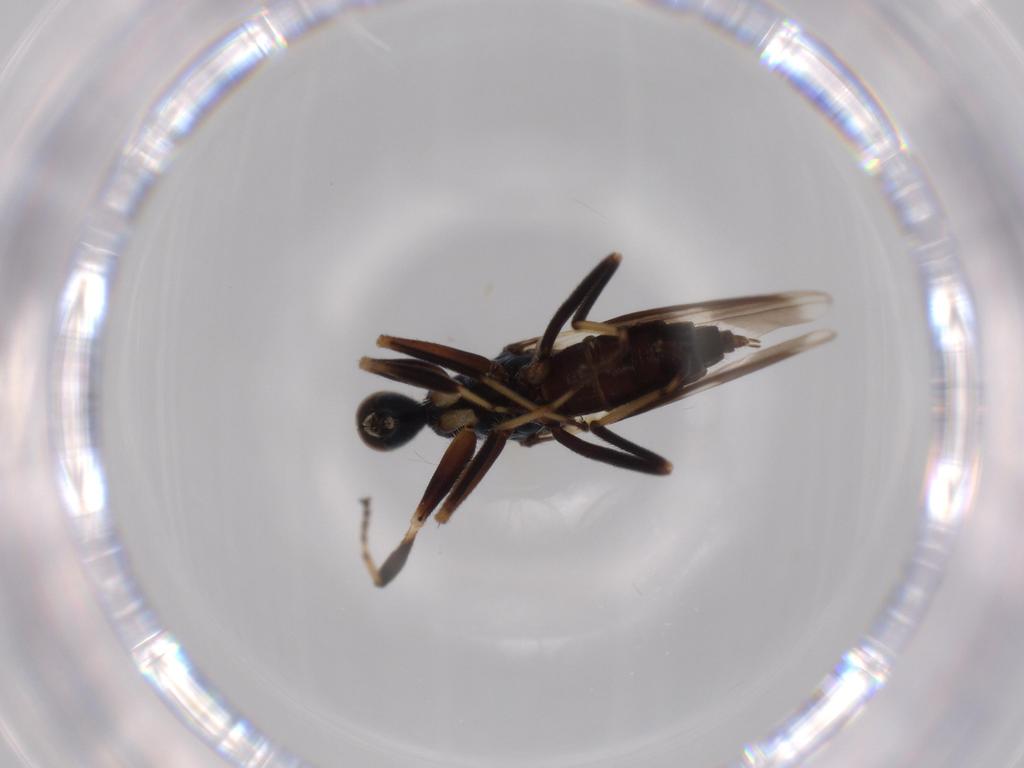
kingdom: Animalia
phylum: Arthropoda
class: Insecta
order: Diptera
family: Hybotidae
